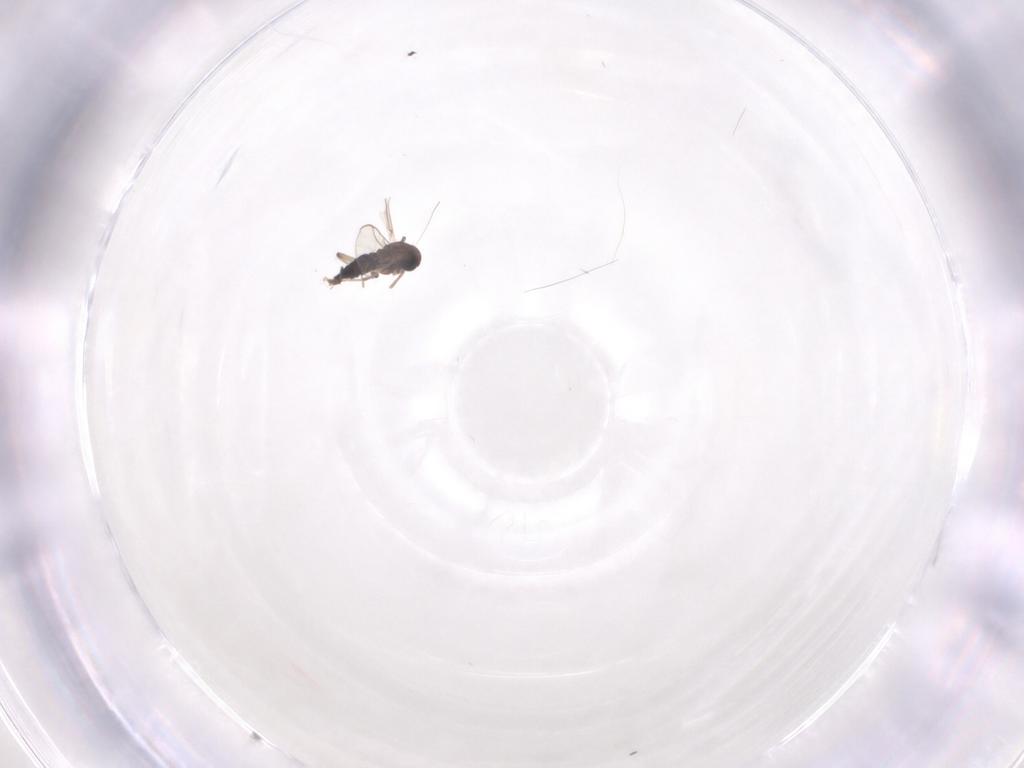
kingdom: Animalia
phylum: Arthropoda
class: Insecta
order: Diptera
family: Chironomidae
